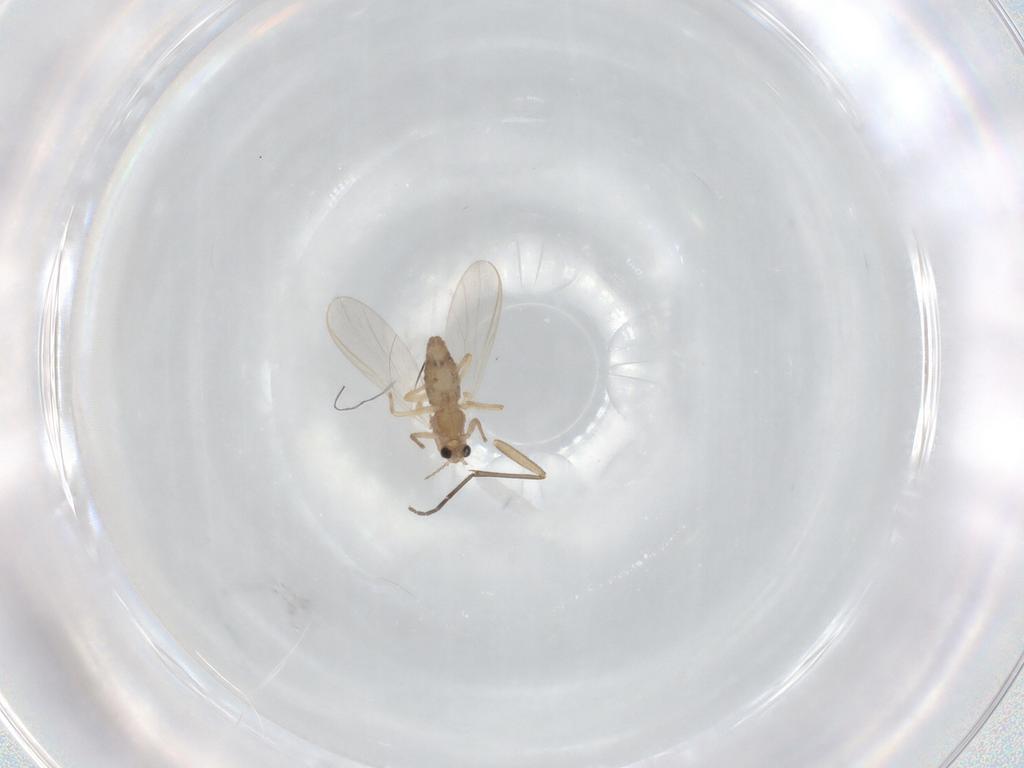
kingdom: Animalia
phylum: Arthropoda
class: Insecta
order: Diptera
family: Chironomidae
